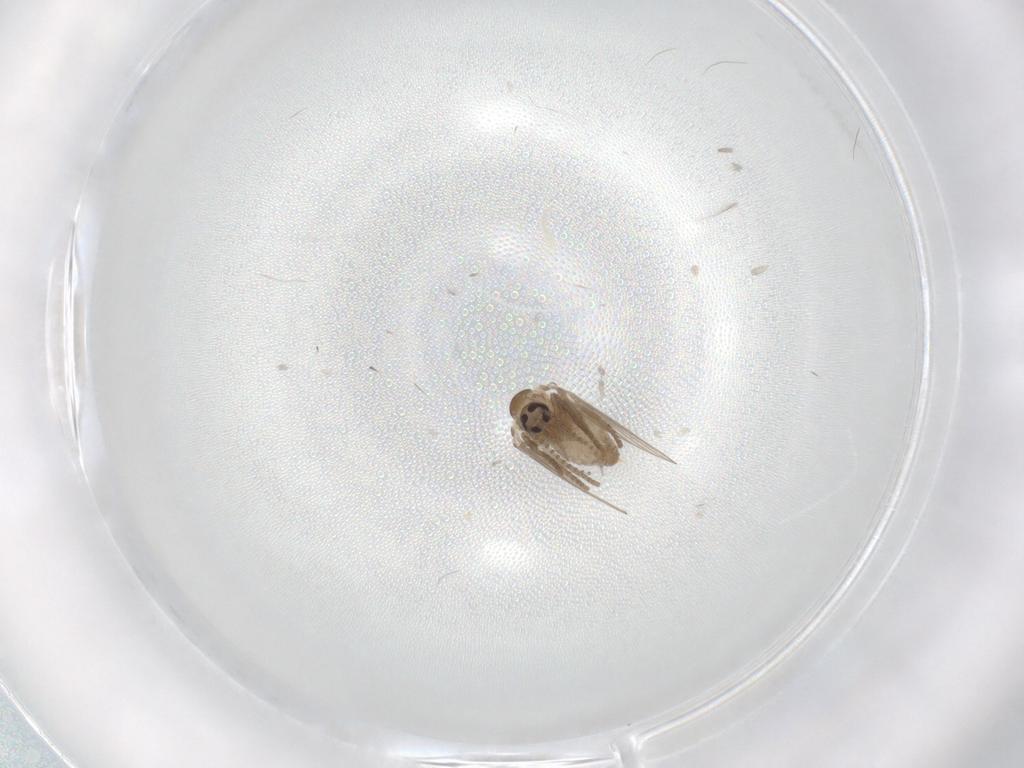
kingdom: Animalia
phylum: Arthropoda
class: Insecta
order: Diptera
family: Psychodidae
